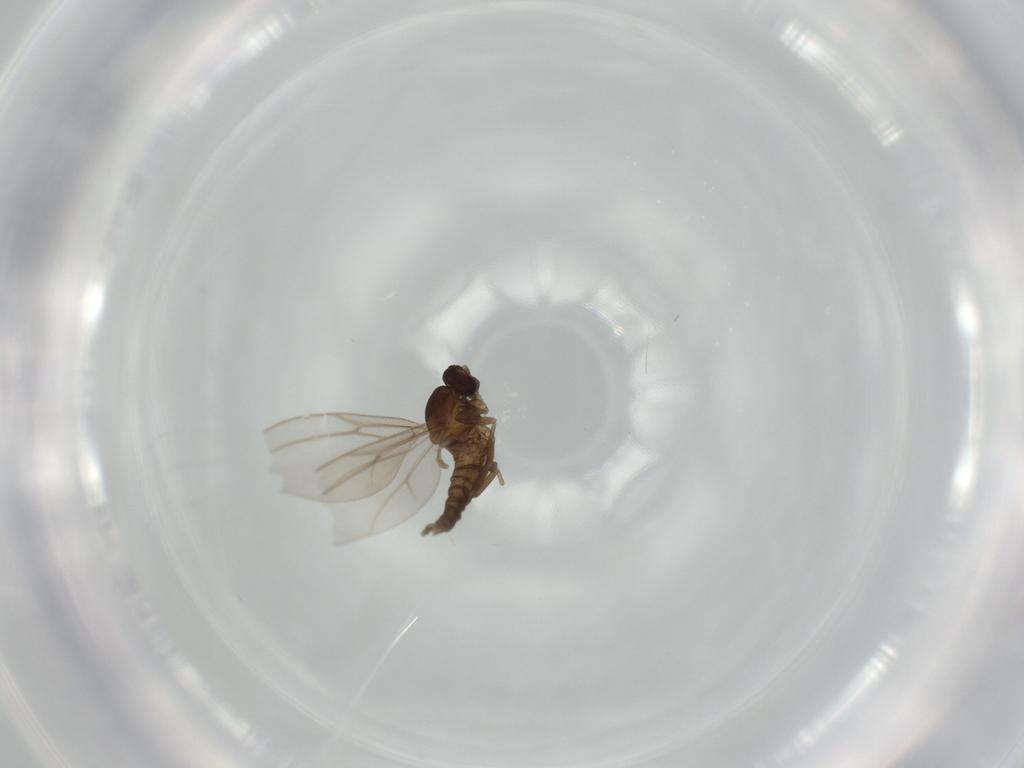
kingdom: Animalia
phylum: Arthropoda
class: Insecta
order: Diptera
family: Cecidomyiidae
